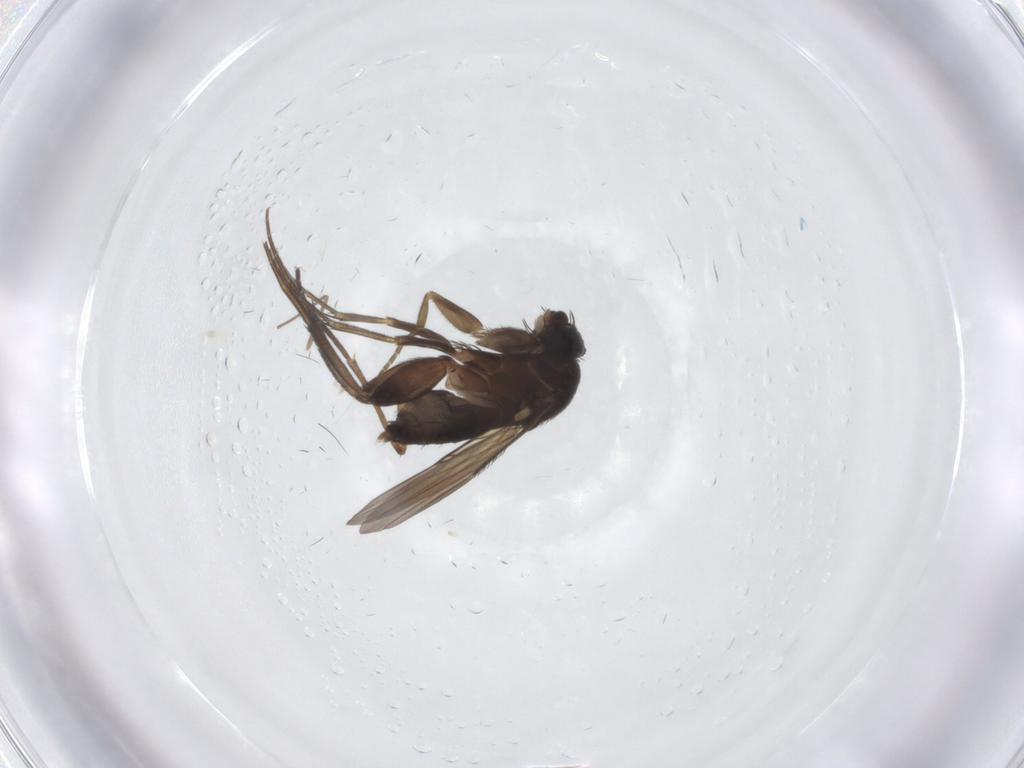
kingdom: Animalia
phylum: Arthropoda
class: Insecta
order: Diptera
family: Phoridae
